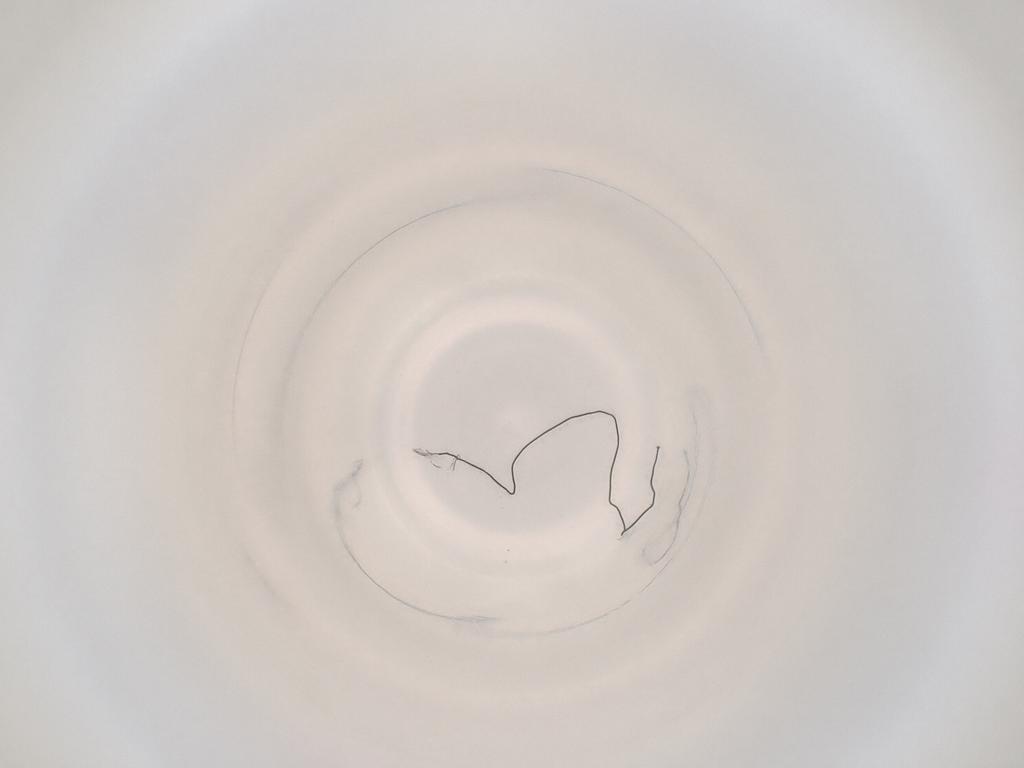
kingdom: Animalia
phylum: Arthropoda
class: Insecta
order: Diptera
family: Cecidomyiidae
